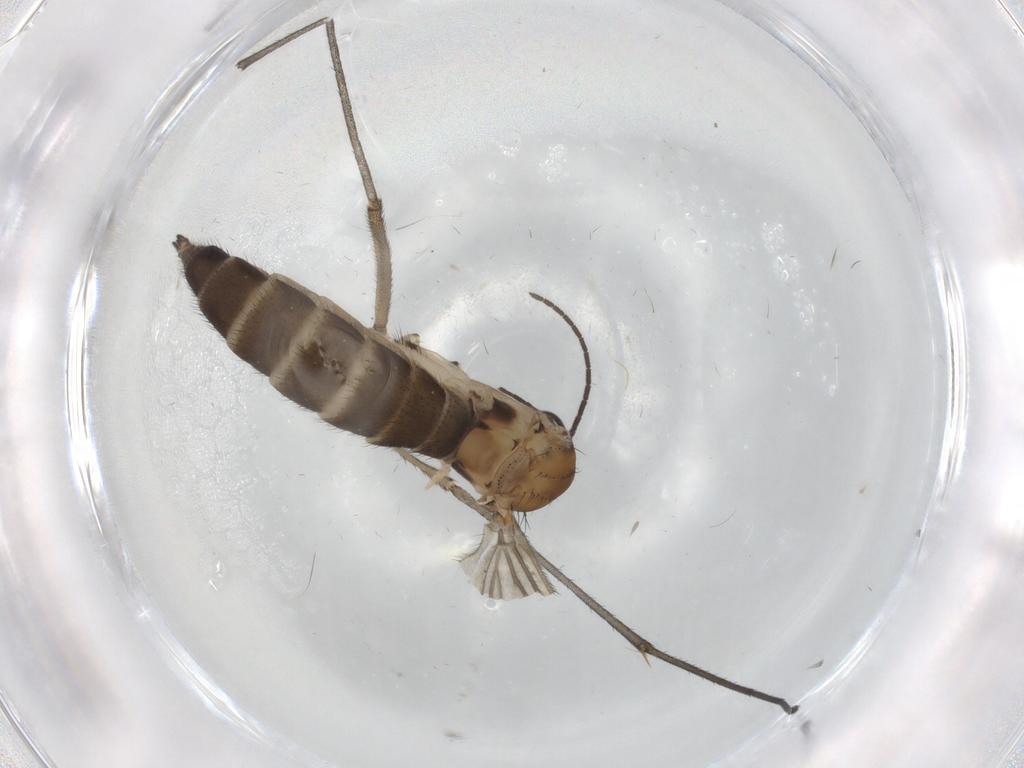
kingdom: Animalia
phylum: Arthropoda
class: Insecta
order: Diptera
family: Sciaridae
